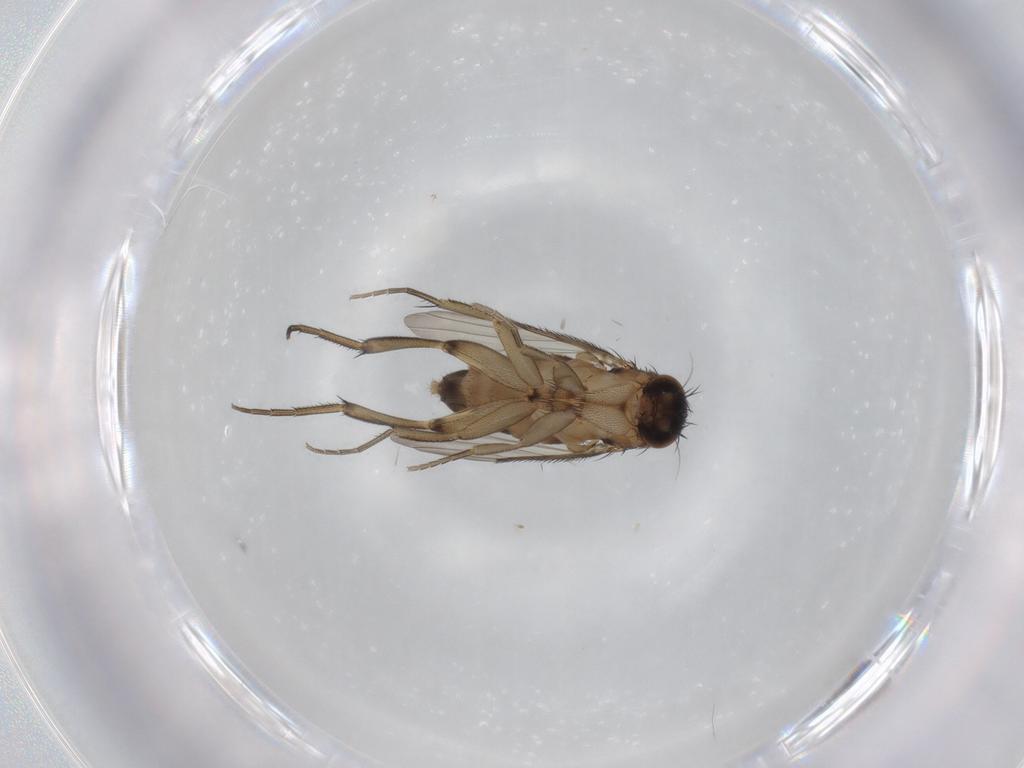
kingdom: Animalia
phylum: Arthropoda
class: Insecta
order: Diptera
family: Phoridae
